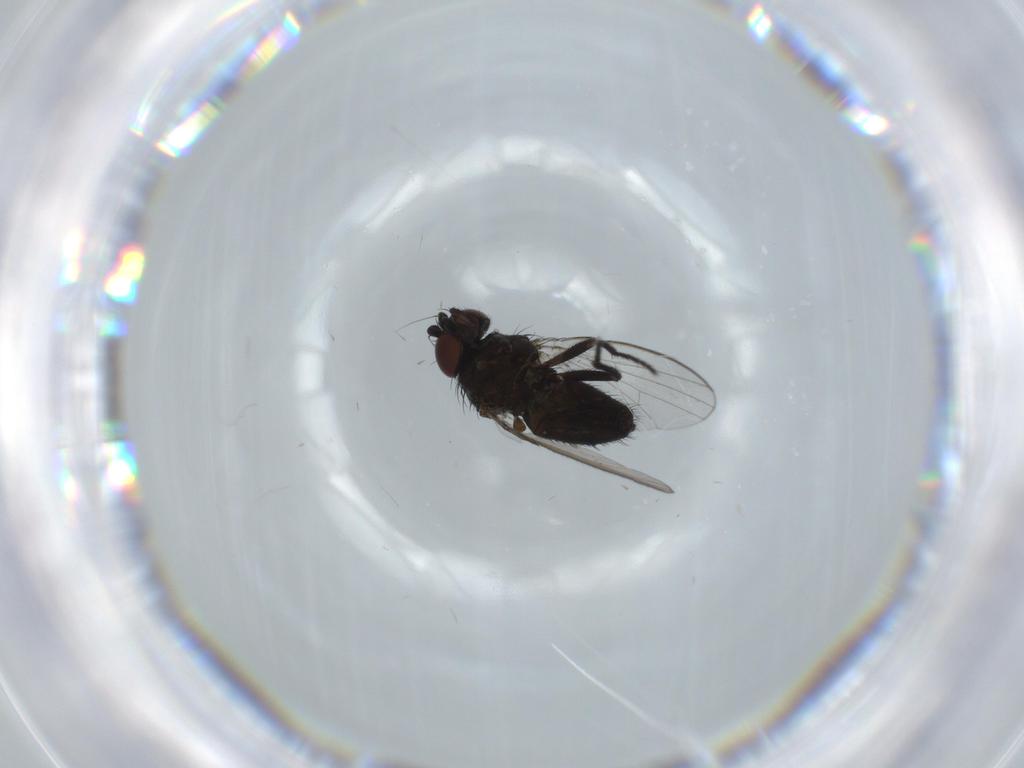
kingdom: Animalia
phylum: Arthropoda
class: Insecta
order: Diptera
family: Milichiidae
